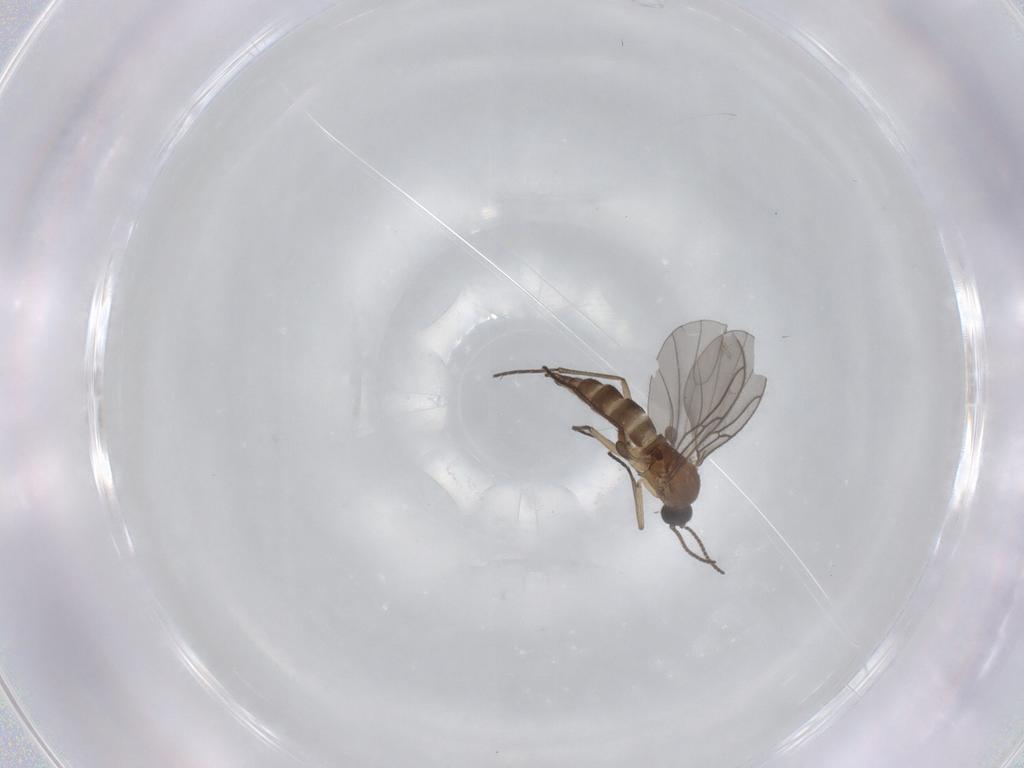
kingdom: Animalia
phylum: Arthropoda
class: Insecta
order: Diptera
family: Sciaridae
